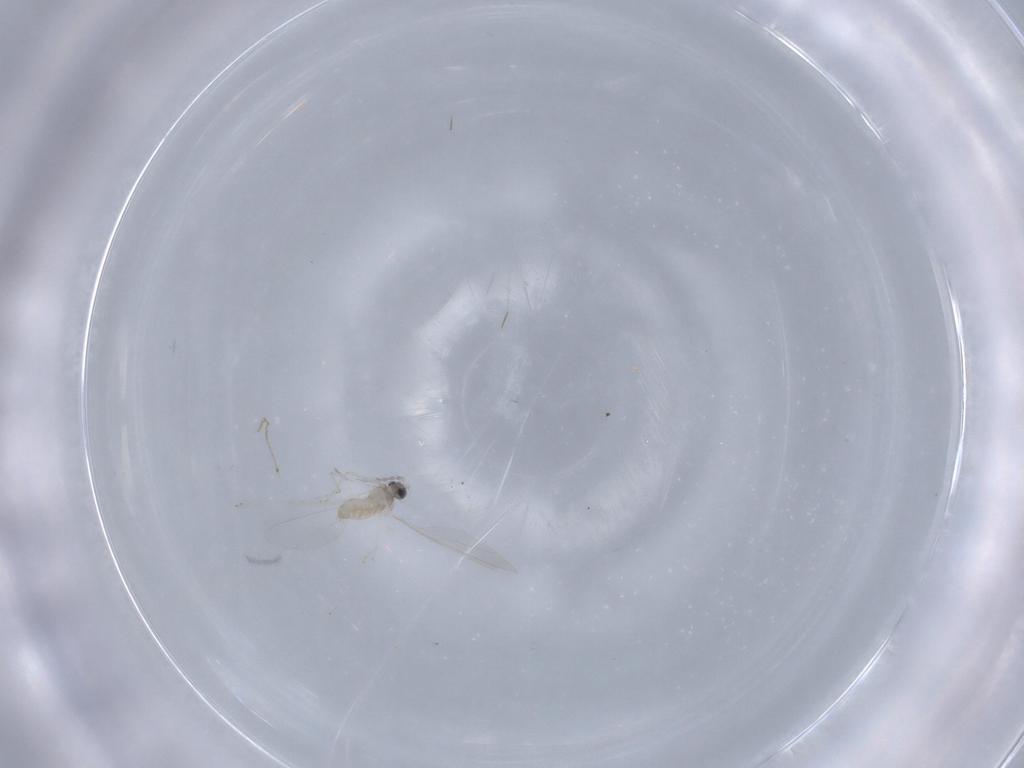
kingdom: Animalia
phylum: Arthropoda
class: Insecta
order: Diptera
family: Cecidomyiidae
